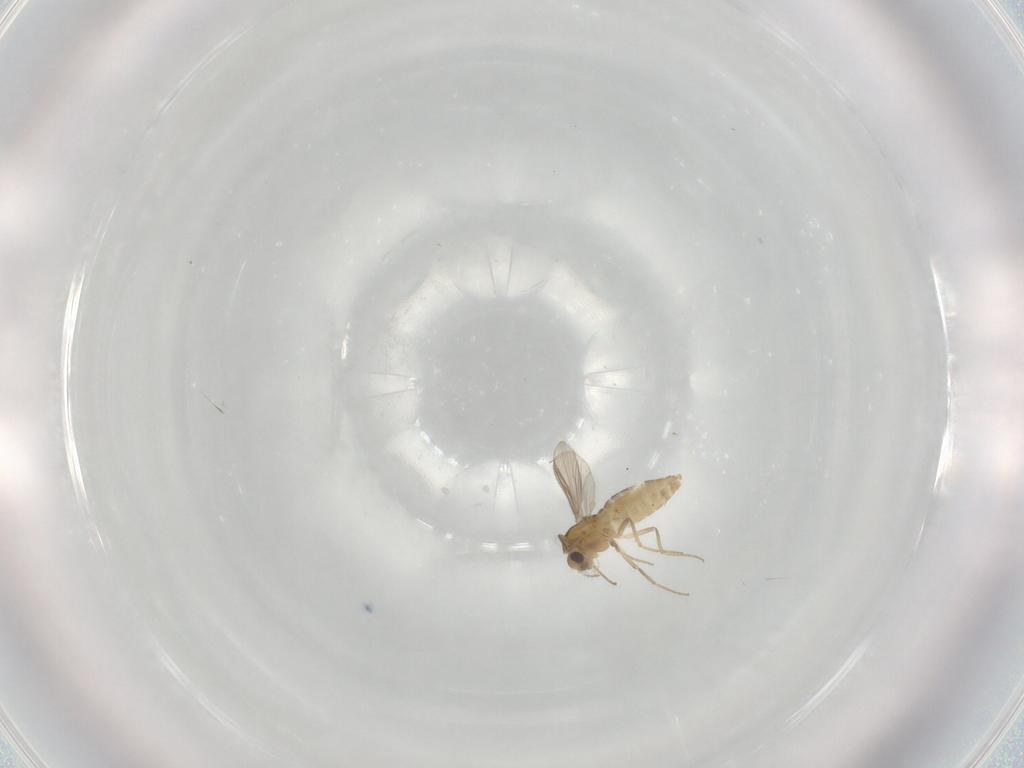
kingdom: Animalia
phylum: Arthropoda
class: Insecta
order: Diptera
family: Chironomidae
